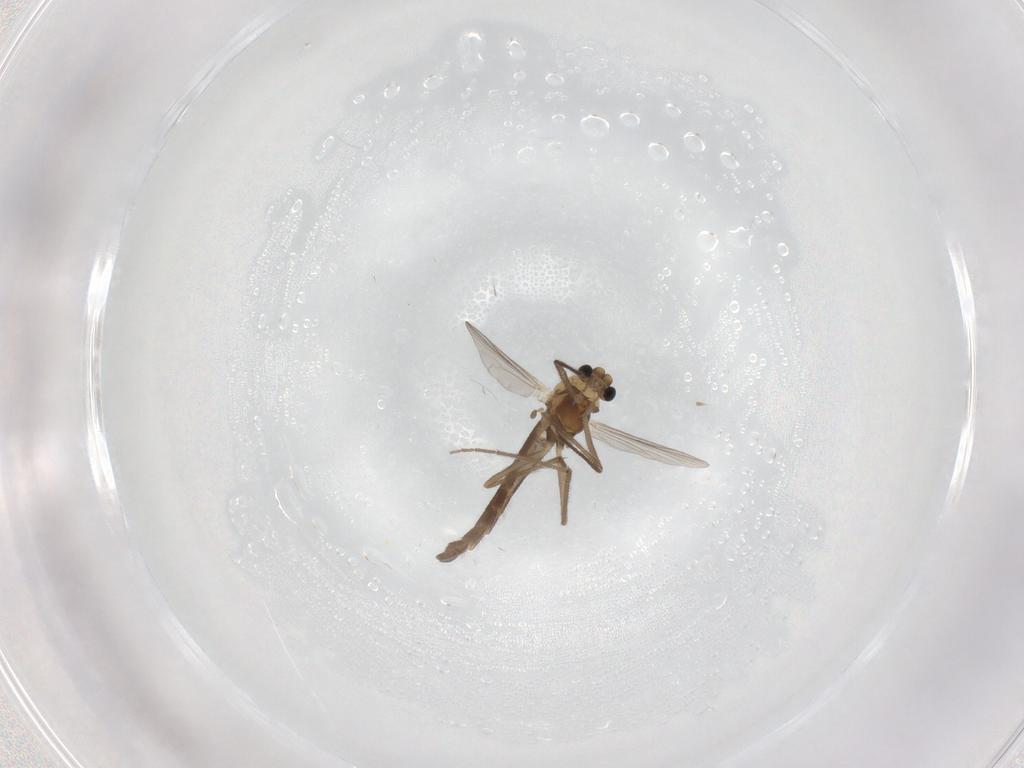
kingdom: Animalia
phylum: Arthropoda
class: Insecta
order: Diptera
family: Chironomidae
